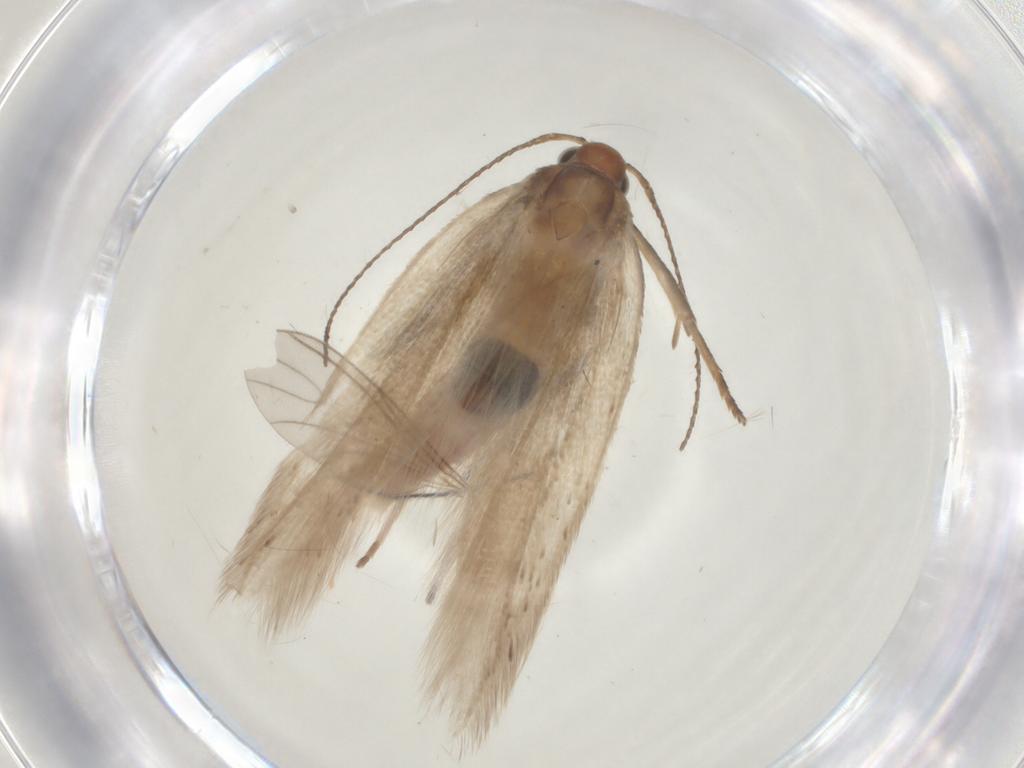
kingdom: Animalia
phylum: Arthropoda
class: Insecta
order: Lepidoptera
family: Gelechiidae
